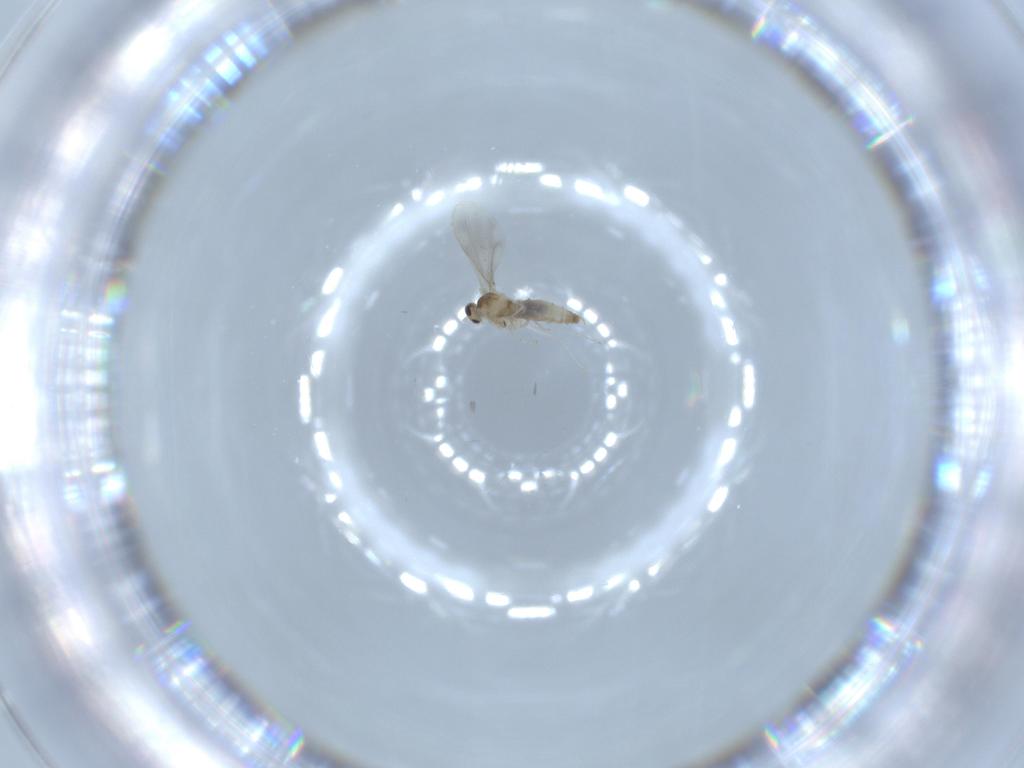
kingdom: Animalia
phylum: Arthropoda
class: Insecta
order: Diptera
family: Cecidomyiidae
